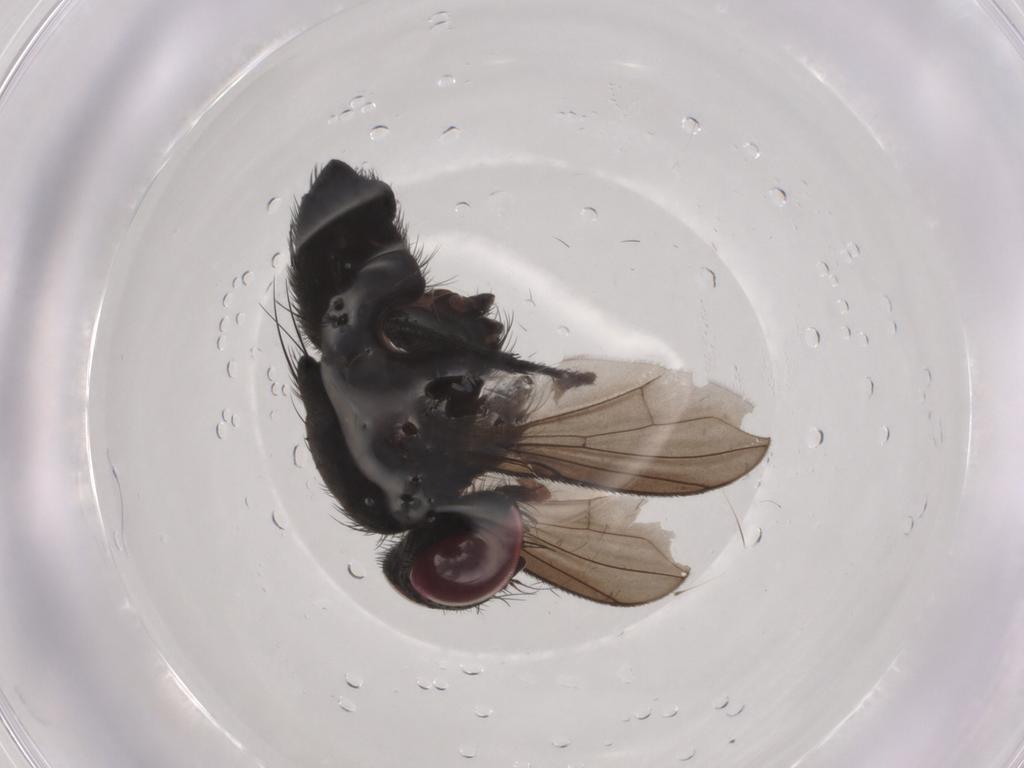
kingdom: Animalia
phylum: Arthropoda
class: Insecta
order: Diptera
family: Calliphoridae
